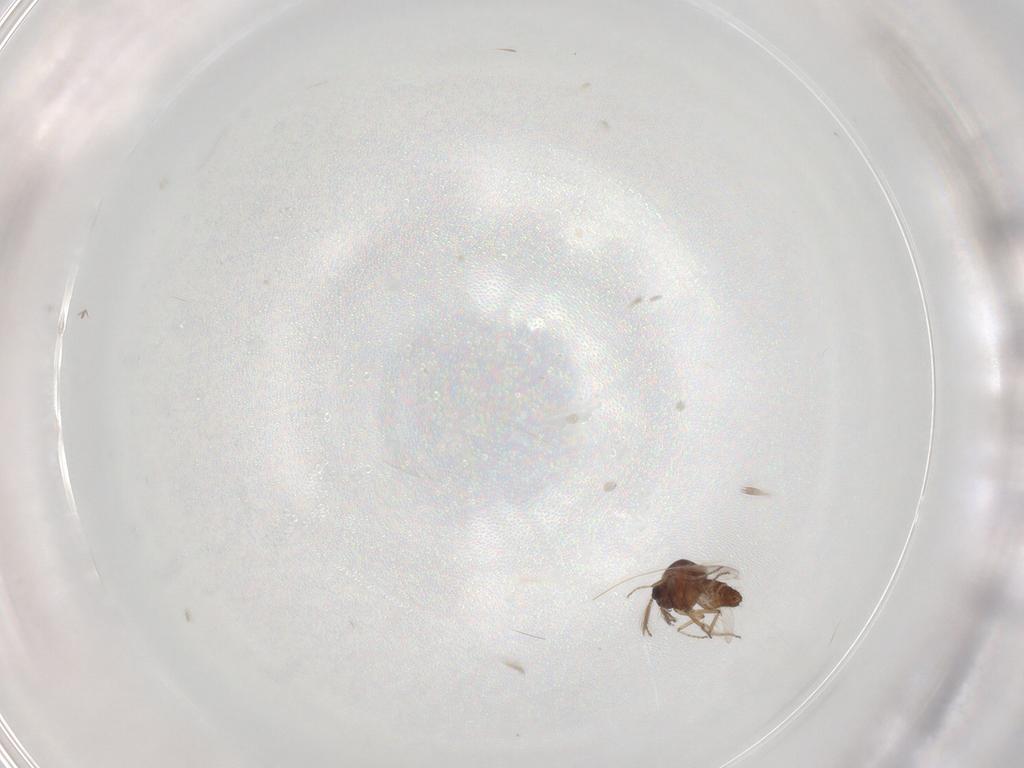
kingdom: Animalia
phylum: Arthropoda
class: Insecta
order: Diptera
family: Ceratopogonidae
